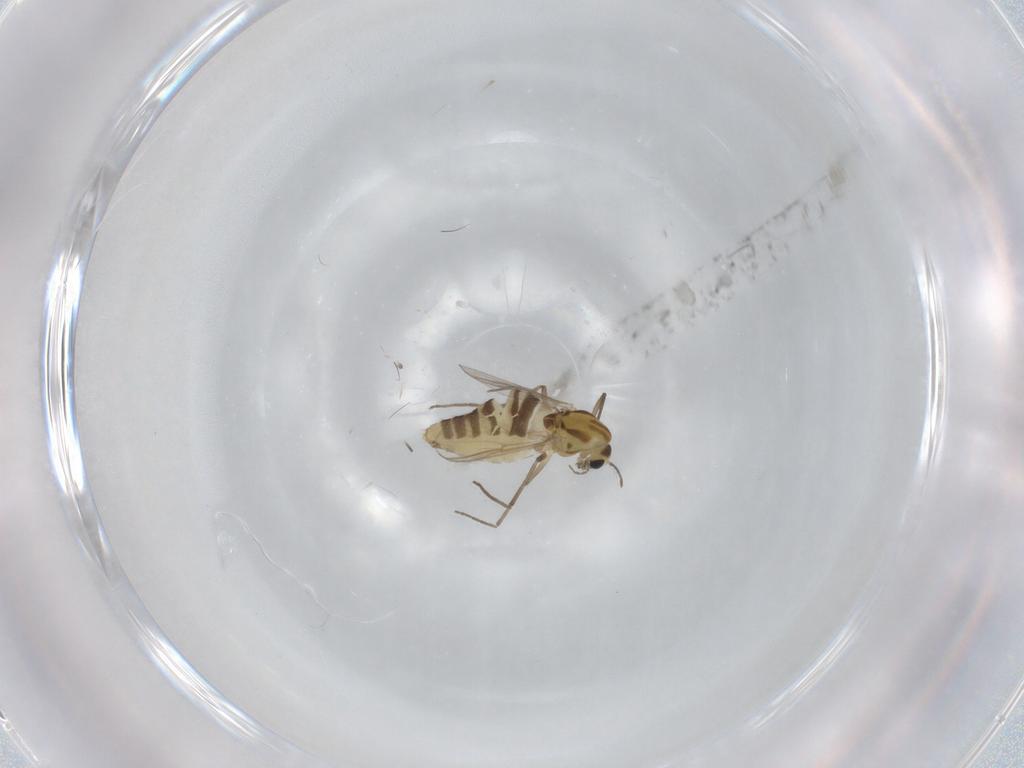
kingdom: Animalia
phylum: Arthropoda
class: Insecta
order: Diptera
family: Chironomidae
